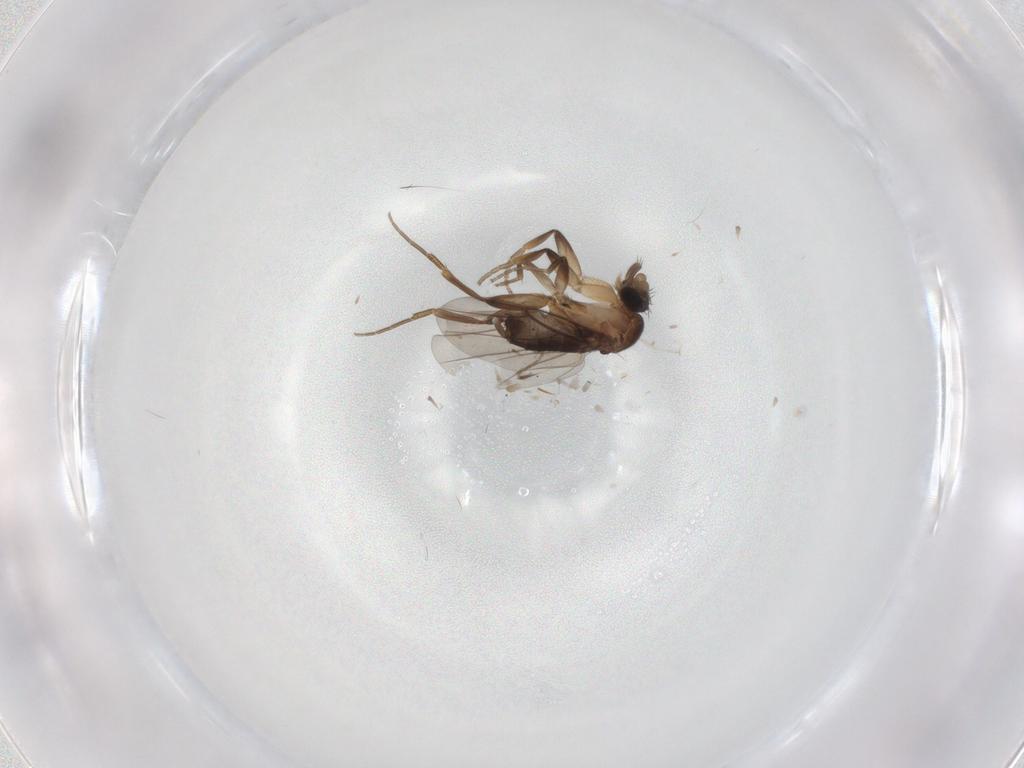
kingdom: Animalia
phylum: Arthropoda
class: Insecta
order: Diptera
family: Phoridae
